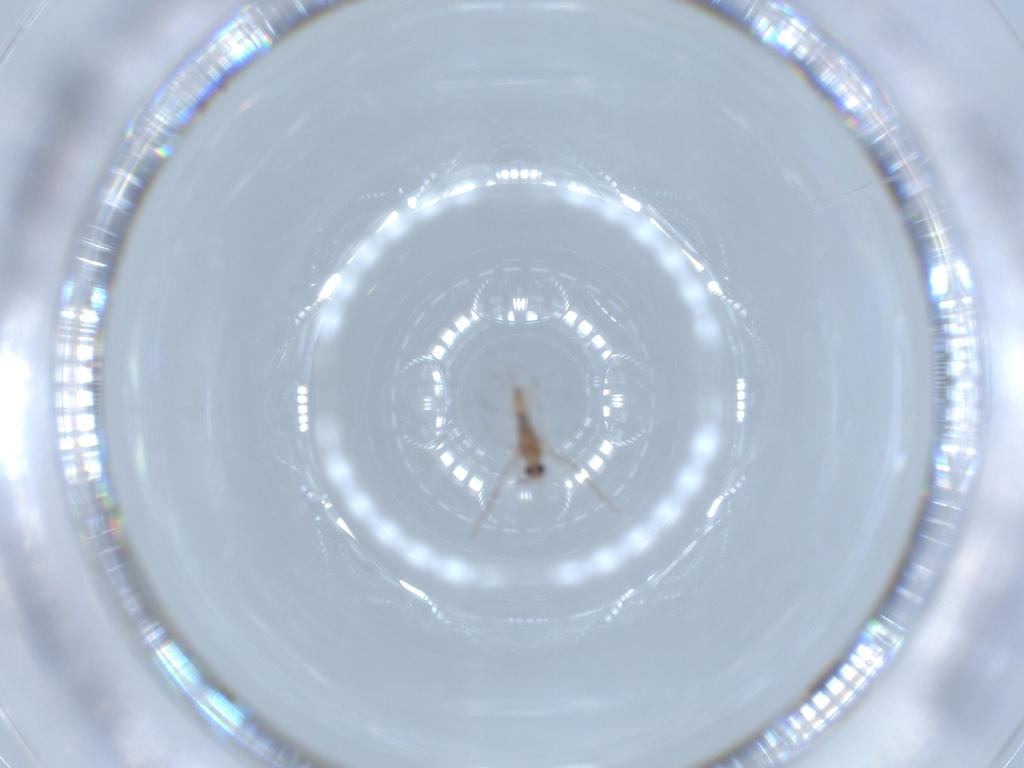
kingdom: Animalia
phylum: Arthropoda
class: Insecta
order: Diptera
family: Cecidomyiidae
